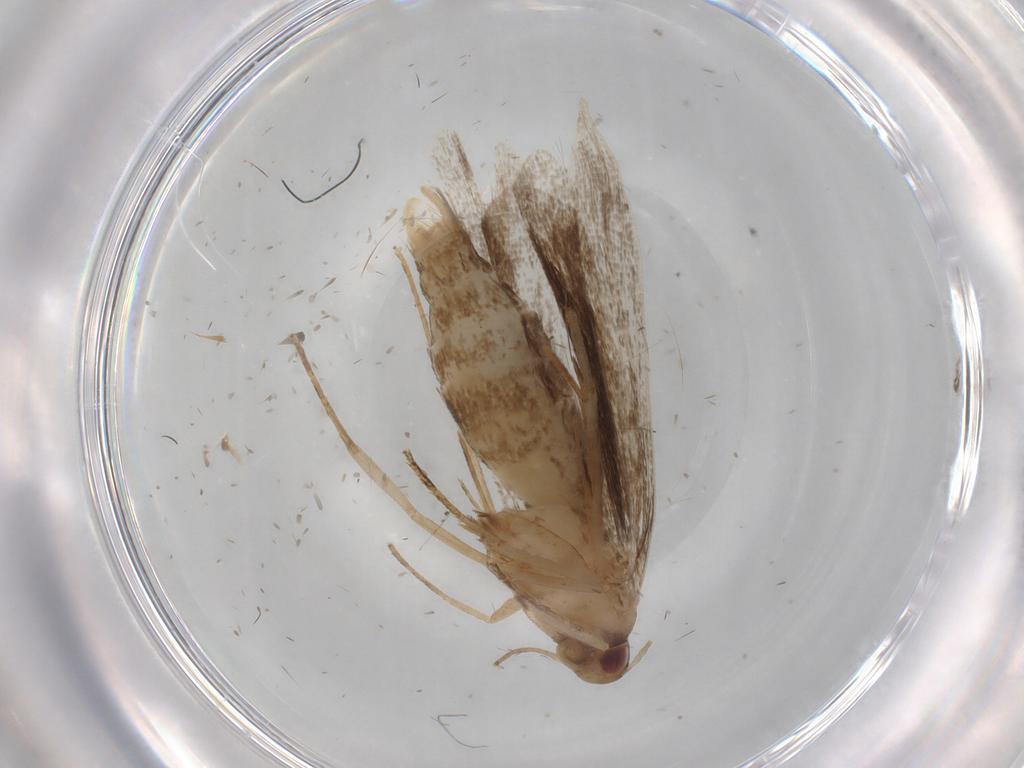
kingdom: Animalia
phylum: Arthropoda
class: Insecta
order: Lepidoptera
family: Gelechiidae
